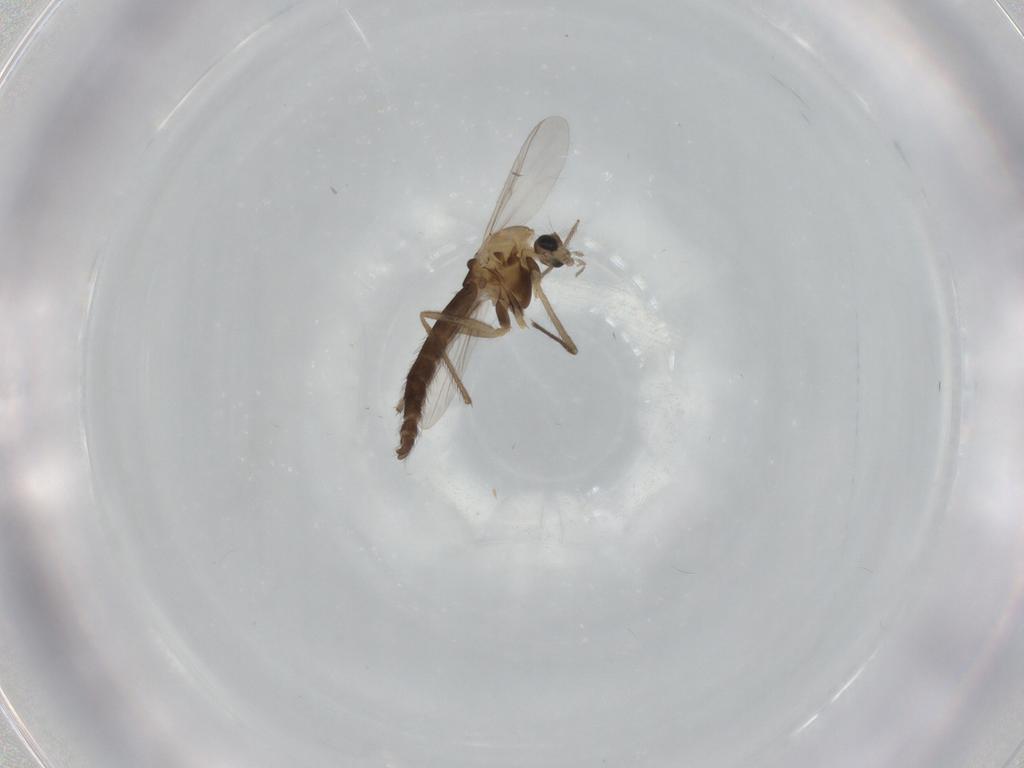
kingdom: Animalia
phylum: Arthropoda
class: Insecta
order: Diptera
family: Chironomidae
